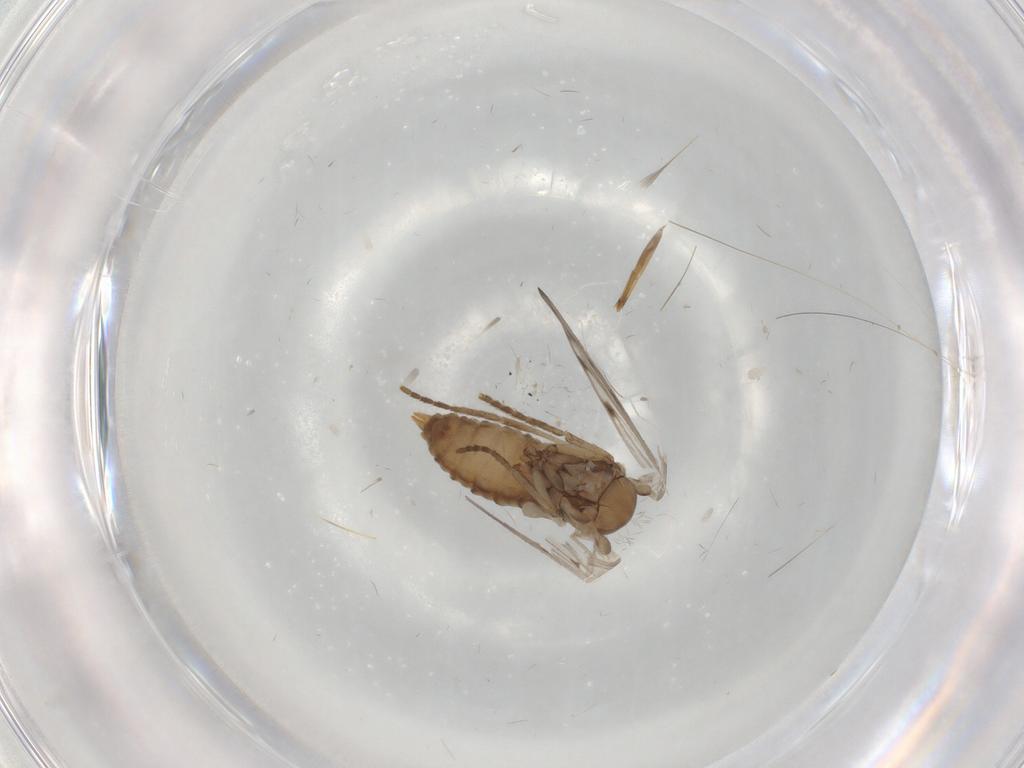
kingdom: Animalia
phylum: Arthropoda
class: Insecta
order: Diptera
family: Psychodidae
